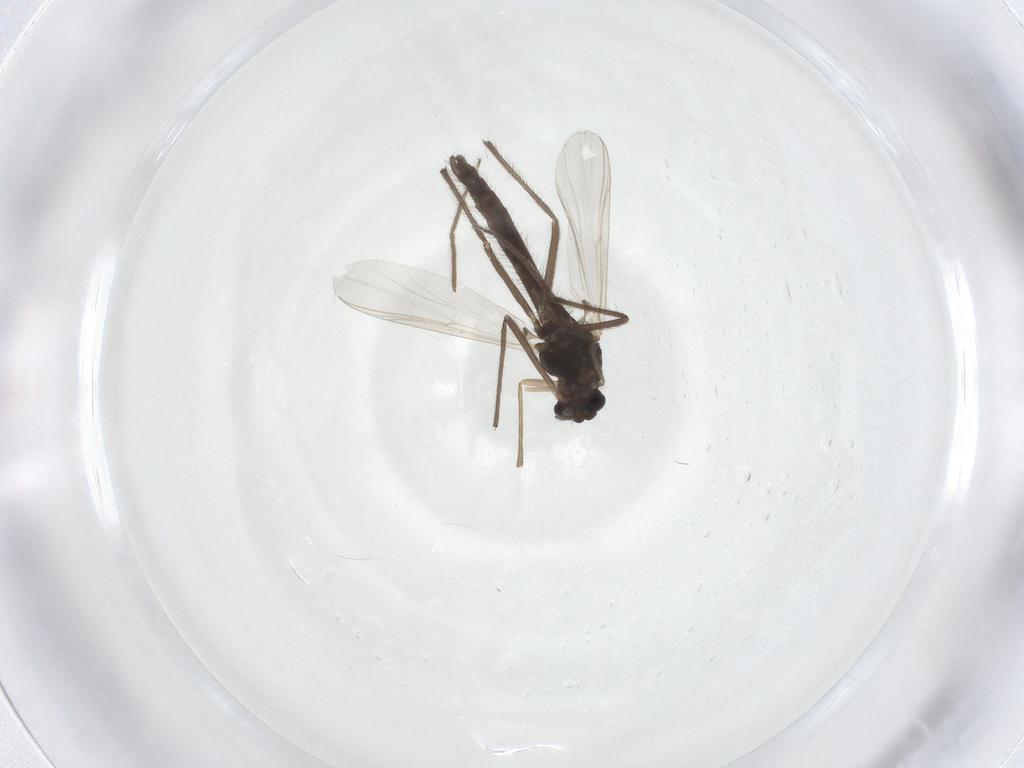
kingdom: Animalia
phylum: Arthropoda
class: Insecta
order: Diptera
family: Chironomidae
